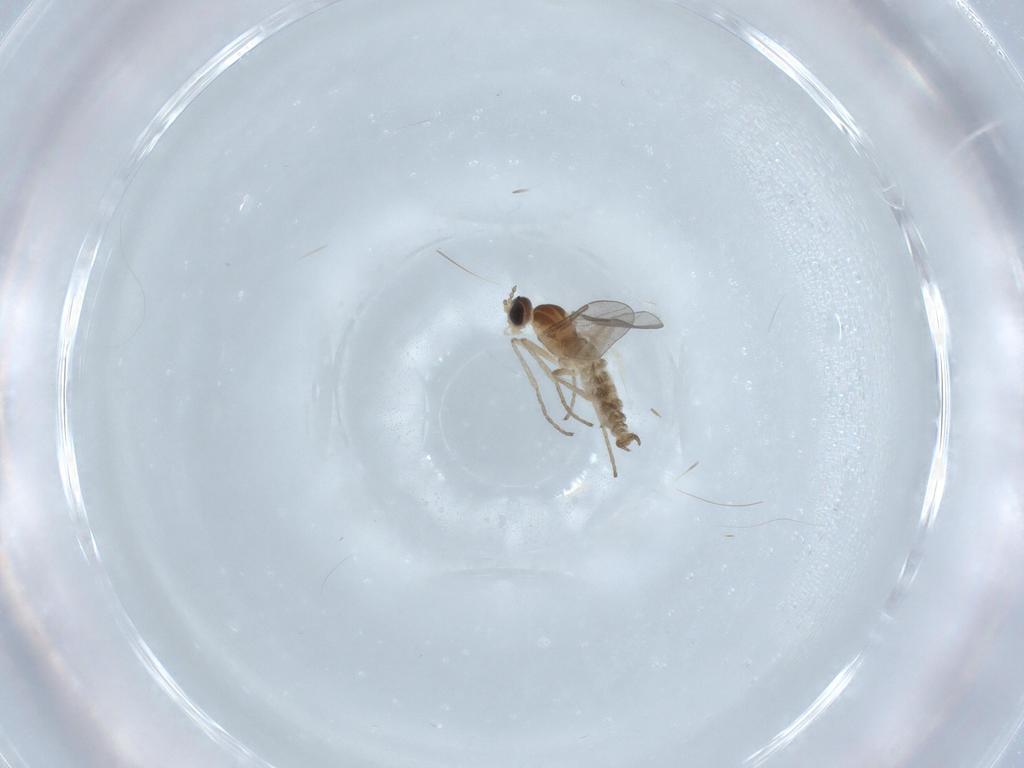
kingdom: Animalia
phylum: Arthropoda
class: Insecta
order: Diptera
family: Cecidomyiidae
